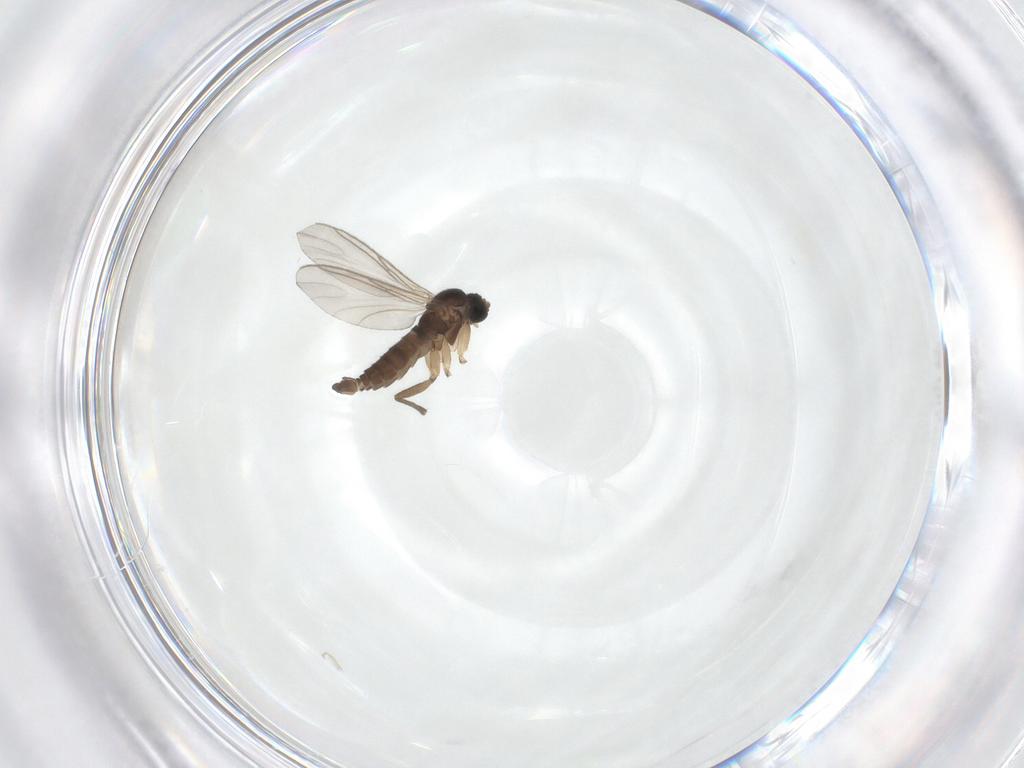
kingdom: Animalia
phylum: Arthropoda
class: Insecta
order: Diptera
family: Sciaridae
